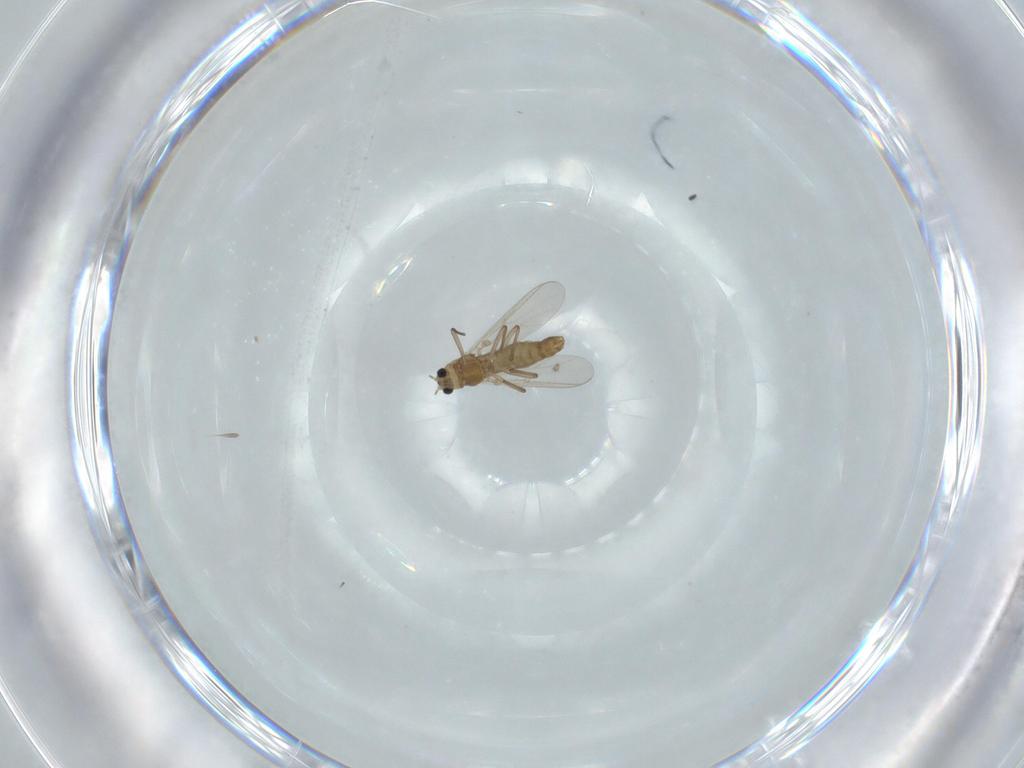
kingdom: Animalia
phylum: Arthropoda
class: Insecta
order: Diptera
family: Chironomidae
